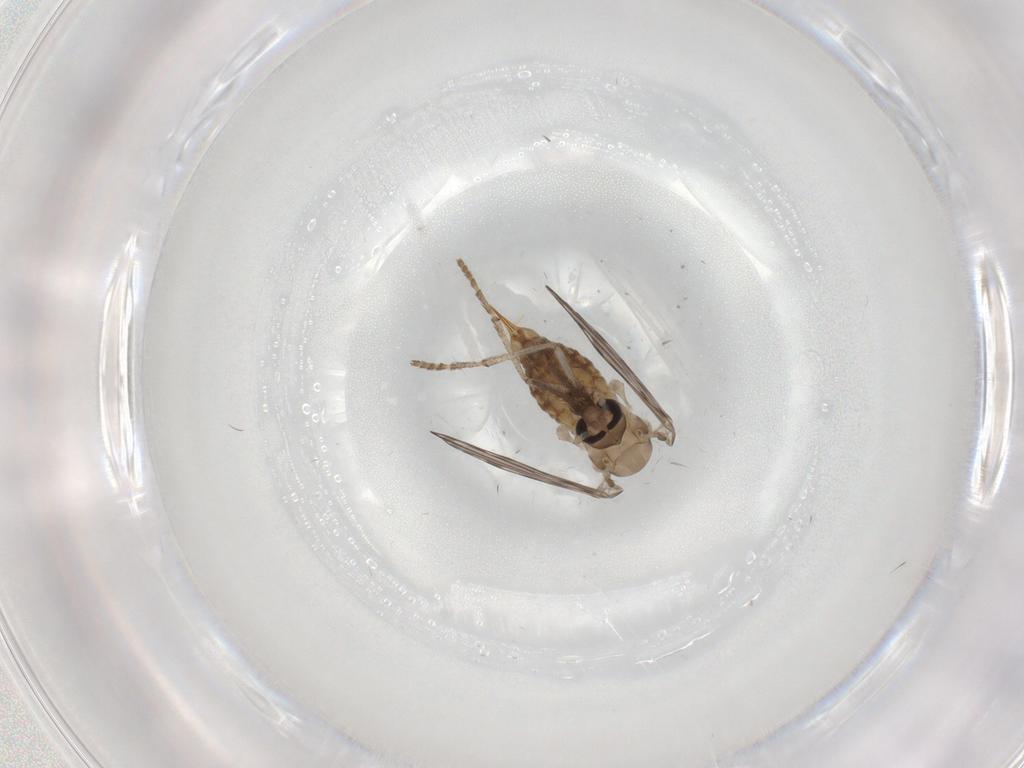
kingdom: Animalia
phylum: Arthropoda
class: Insecta
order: Diptera
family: Psychodidae
